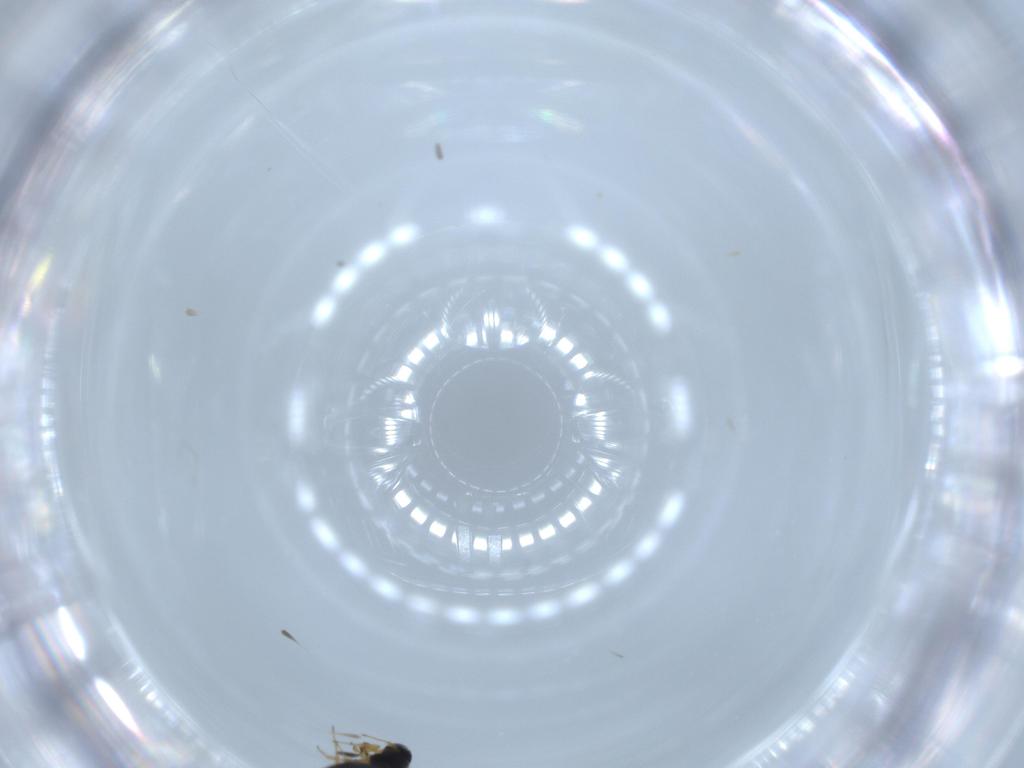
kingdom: Animalia
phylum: Arthropoda
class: Insecta
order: Hymenoptera
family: Scelionidae
